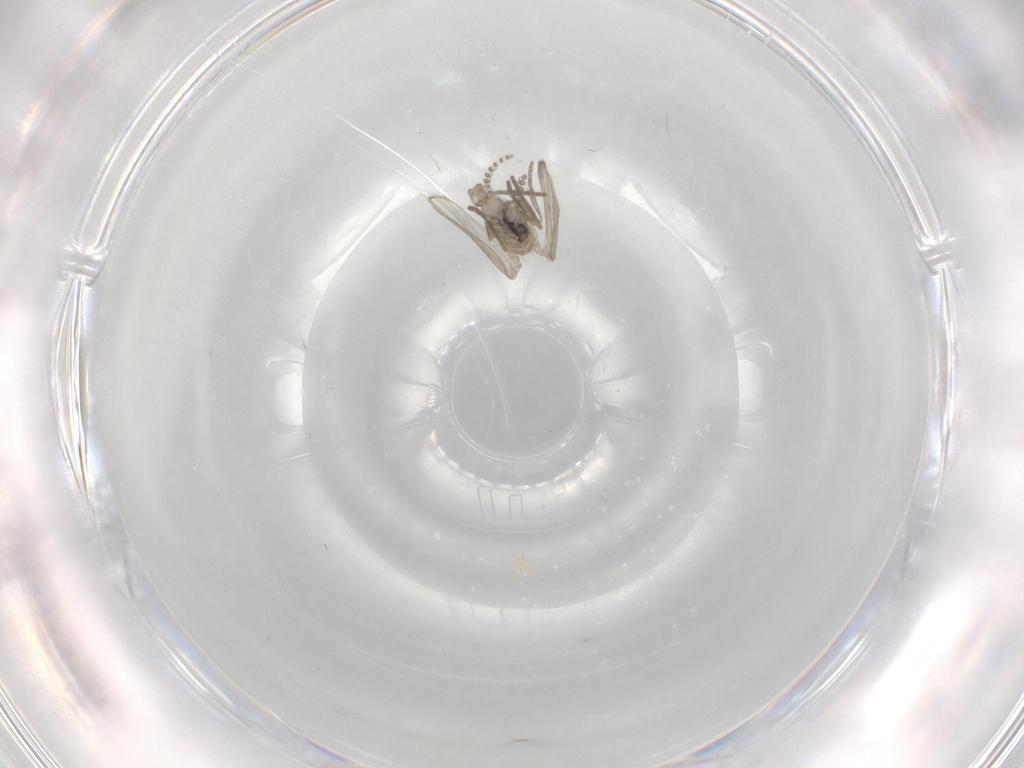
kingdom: Animalia
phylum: Arthropoda
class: Insecta
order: Diptera
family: Psychodidae
